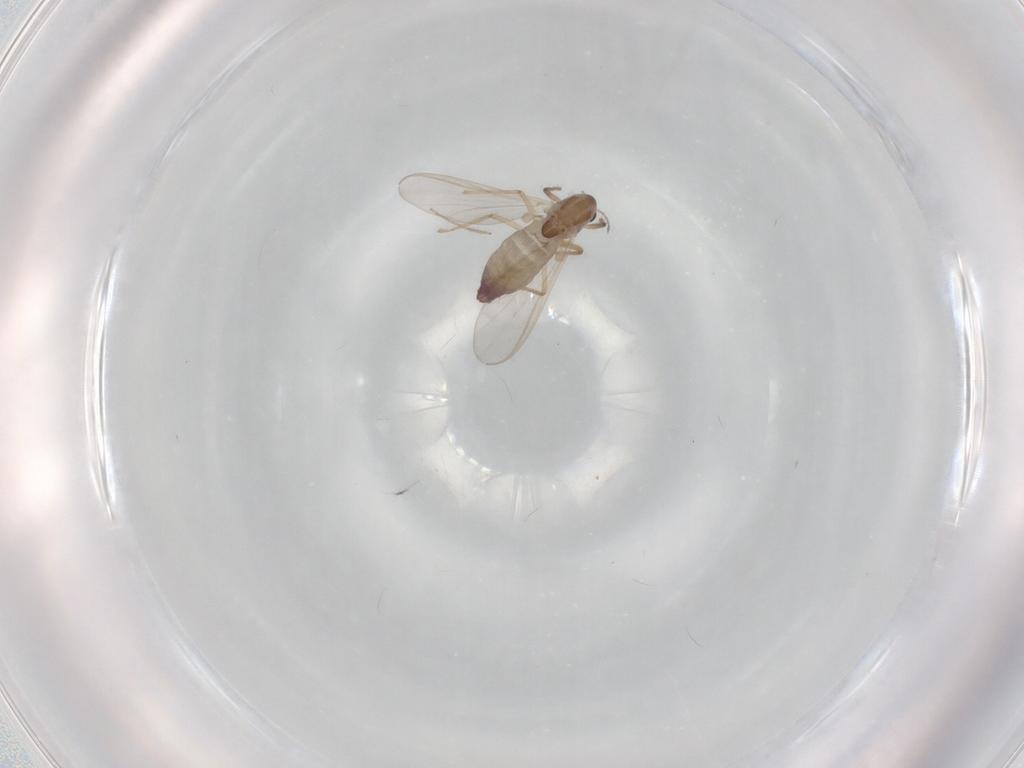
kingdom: Animalia
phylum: Arthropoda
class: Insecta
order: Diptera
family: Chironomidae
